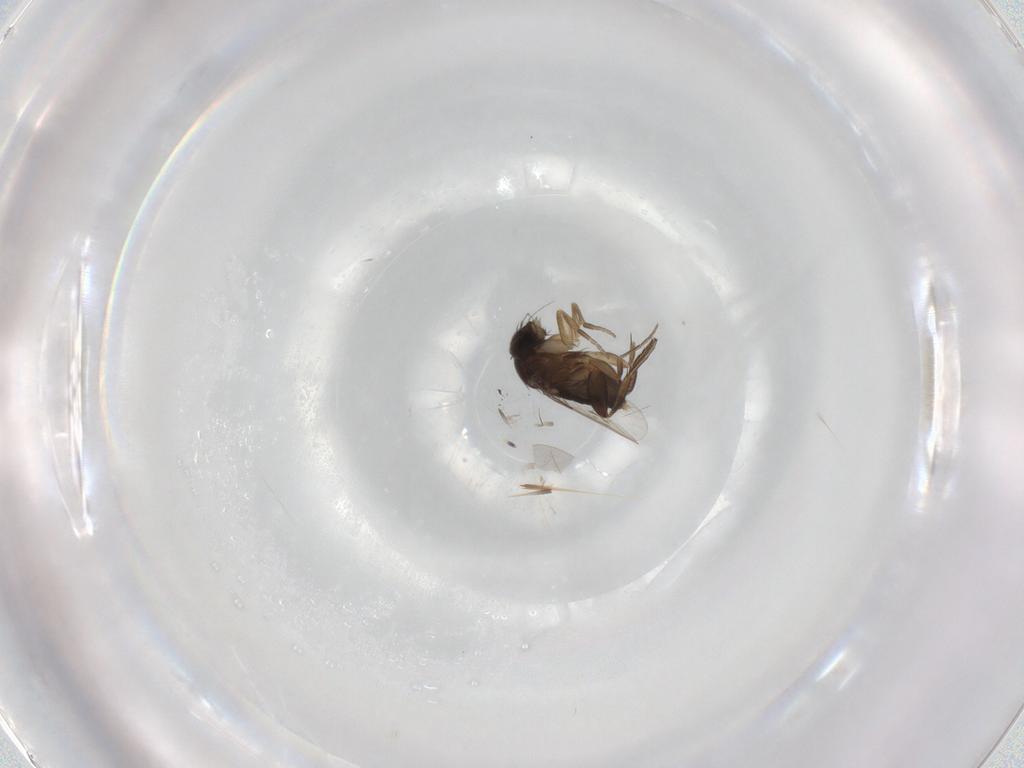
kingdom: Animalia
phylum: Arthropoda
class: Insecta
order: Diptera
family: Phoridae
